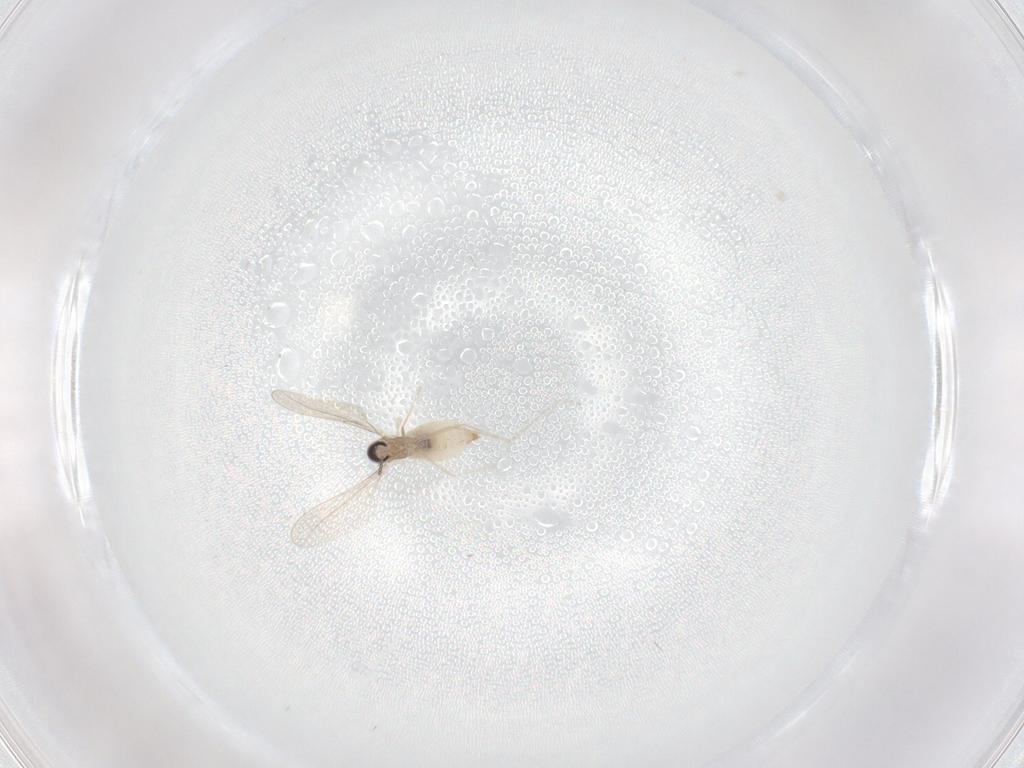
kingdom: Animalia
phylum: Arthropoda
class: Insecta
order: Diptera
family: Cecidomyiidae
